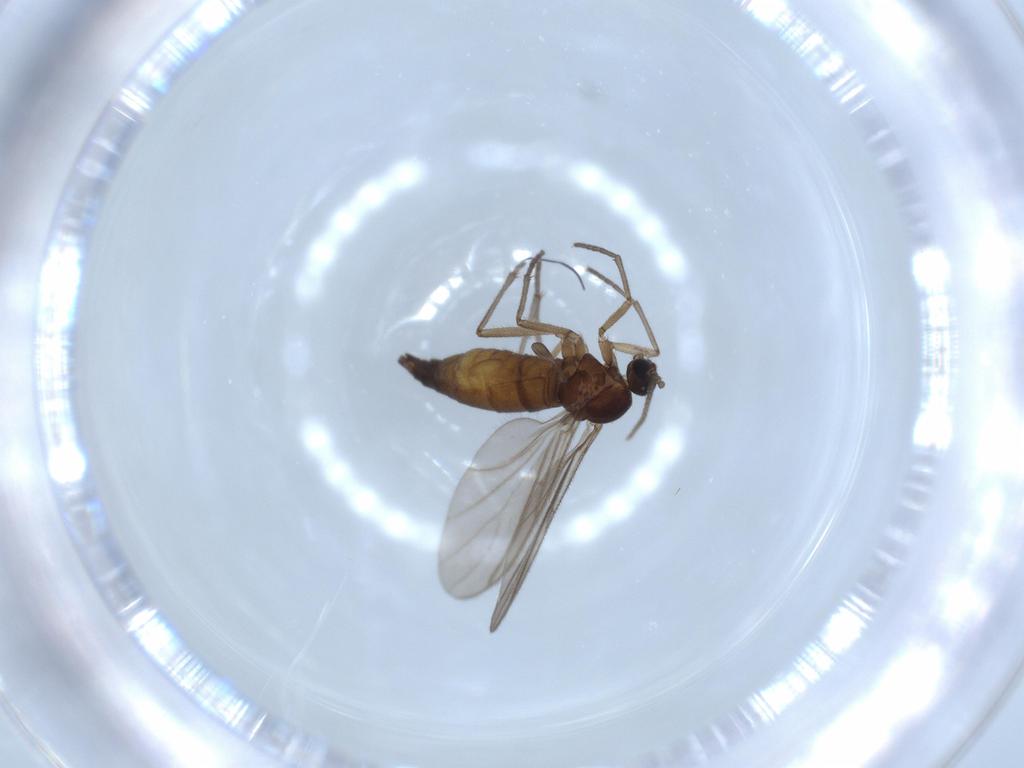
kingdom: Animalia
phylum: Arthropoda
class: Insecta
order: Diptera
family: Sciaridae
